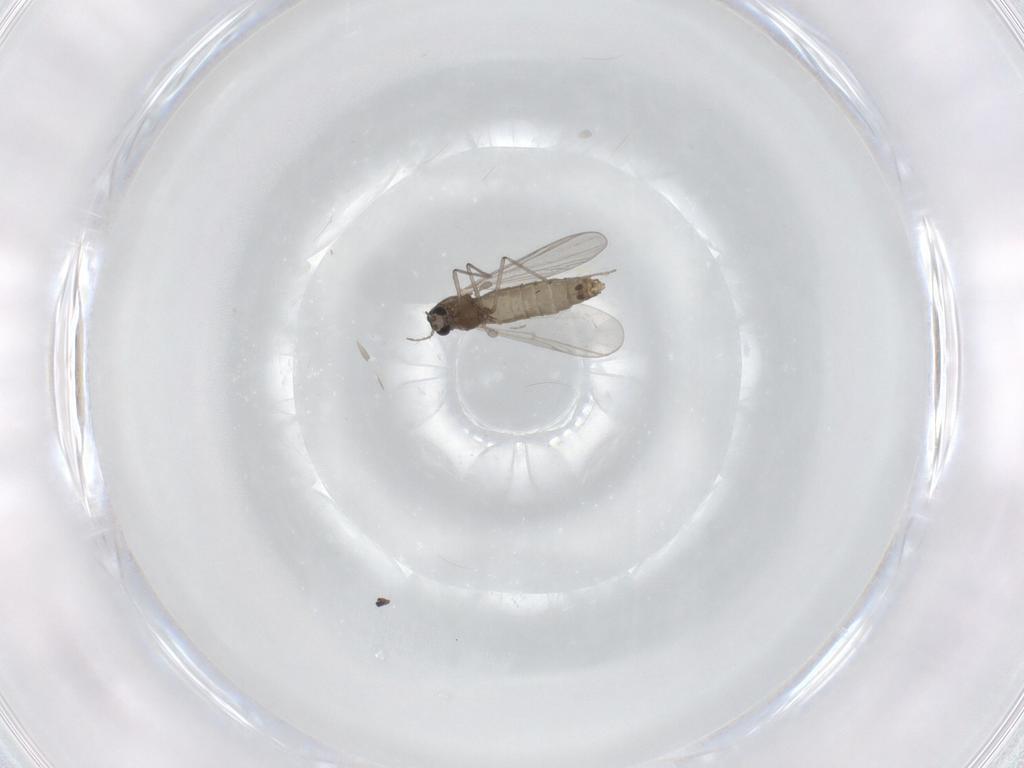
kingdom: Animalia
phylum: Arthropoda
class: Insecta
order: Diptera
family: Chironomidae
